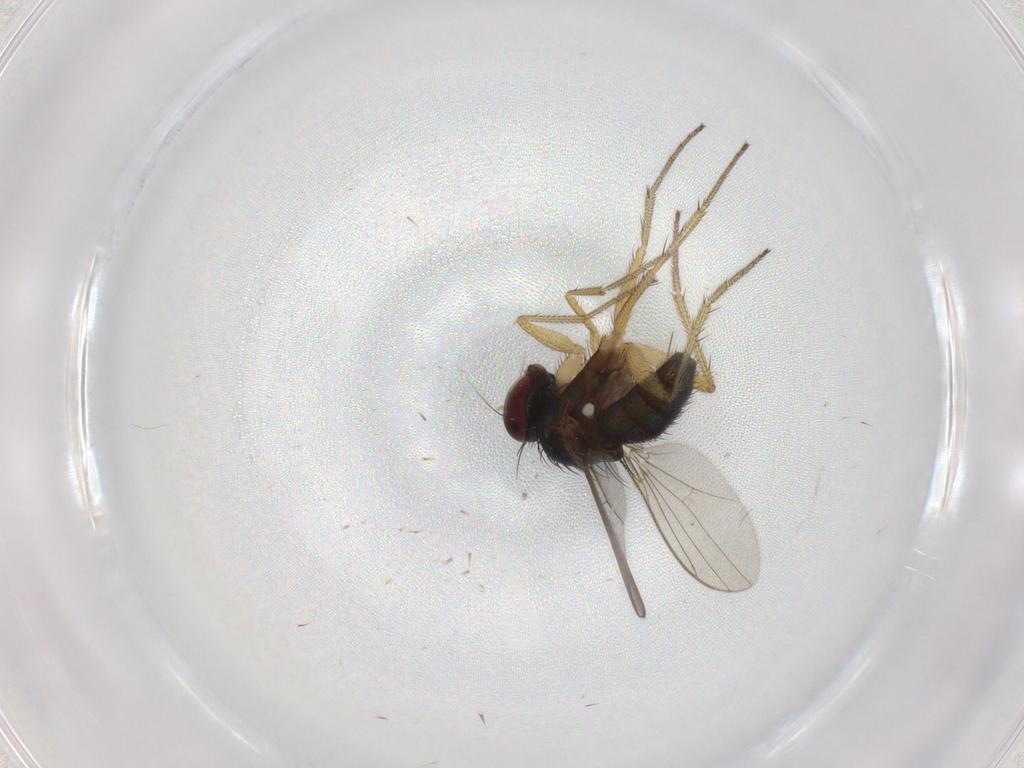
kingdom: Animalia
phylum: Arthropoda
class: Insecta
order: Diptera
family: Dolichopodidae
